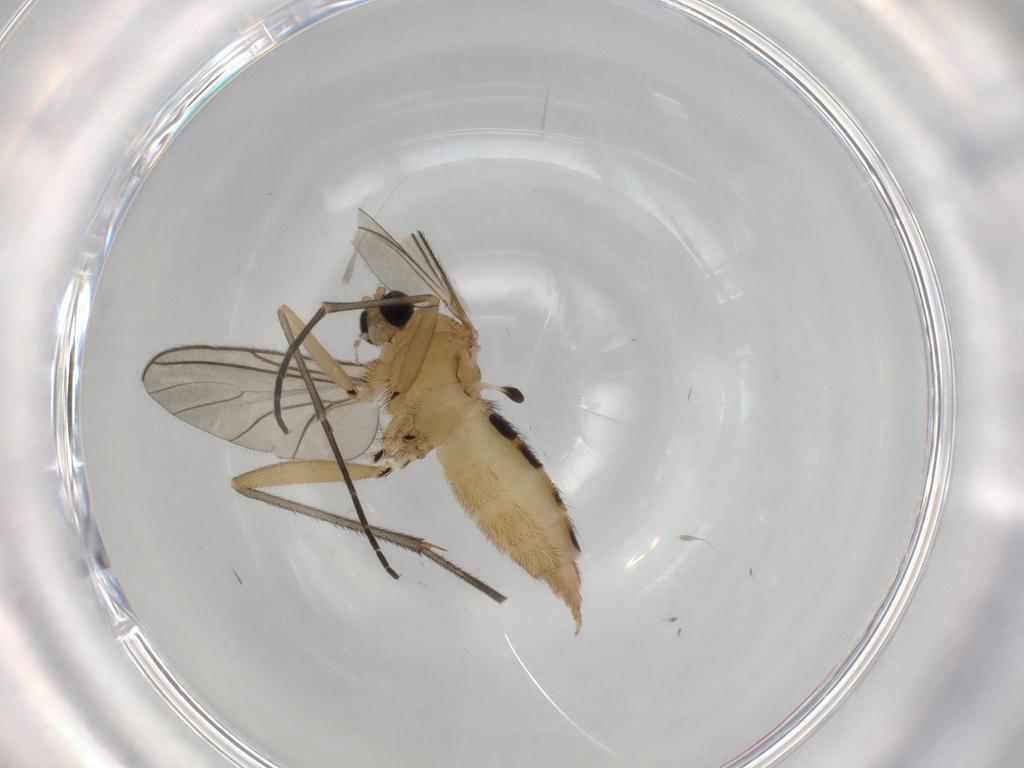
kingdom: Animalia
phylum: Arthropoda
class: Insecta
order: Diptera
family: Sciaridae
